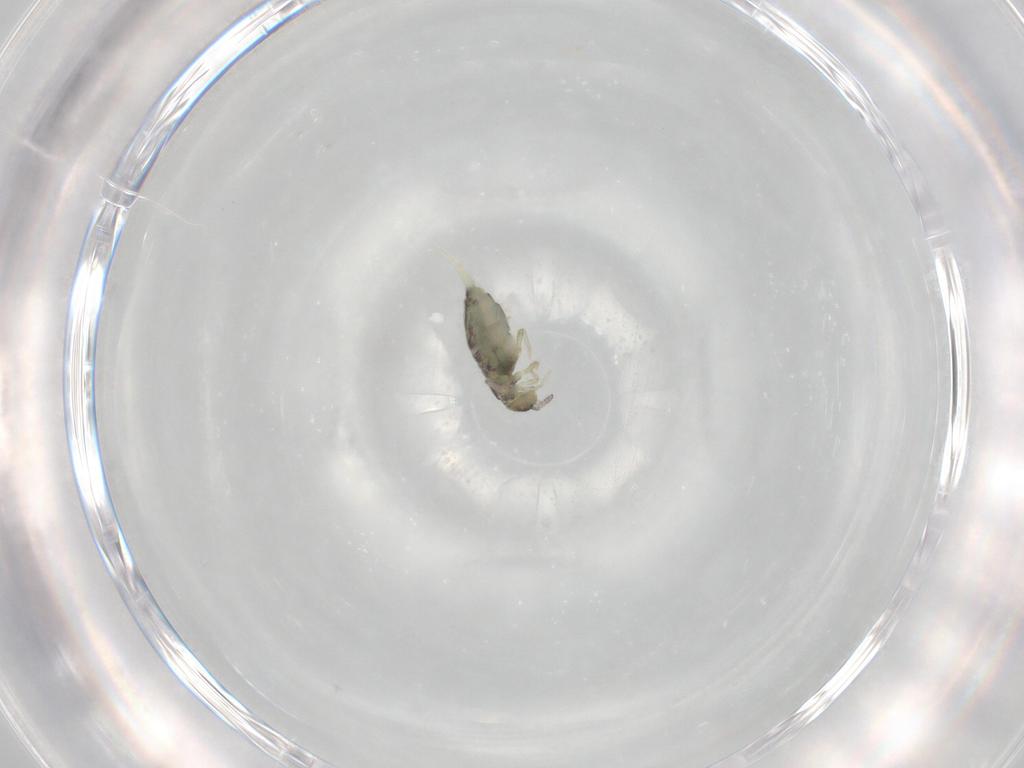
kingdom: Animalia
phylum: Arthropoda
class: Collembola
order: Entomobryomorpha
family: Entomobryidae
